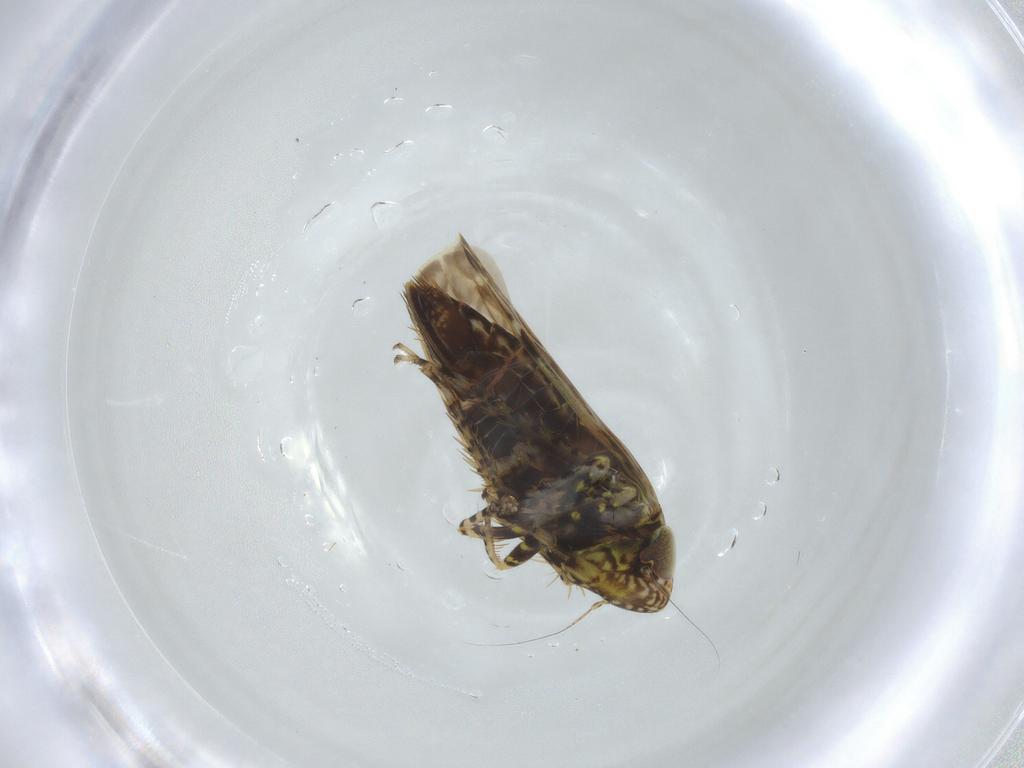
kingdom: Animalia
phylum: Arthropoda
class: Insecta
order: Hemiptera
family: Cicadellidae
